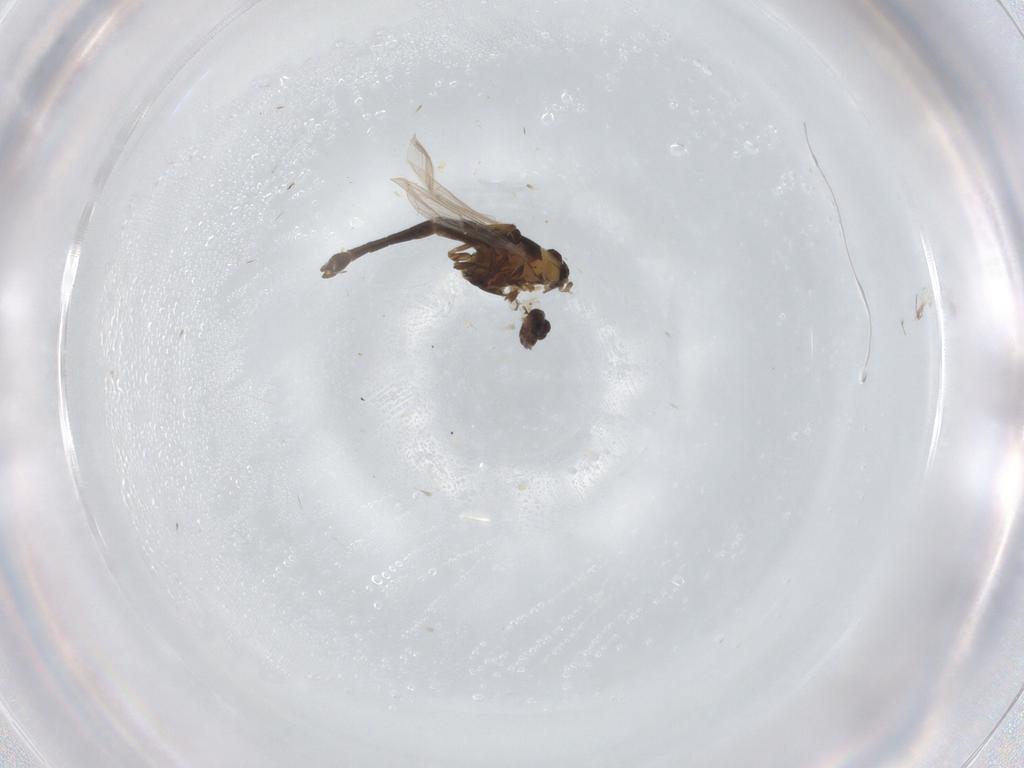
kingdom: Animalia
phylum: Arthropoda
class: Insecta
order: Diptera
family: Chironomidae
